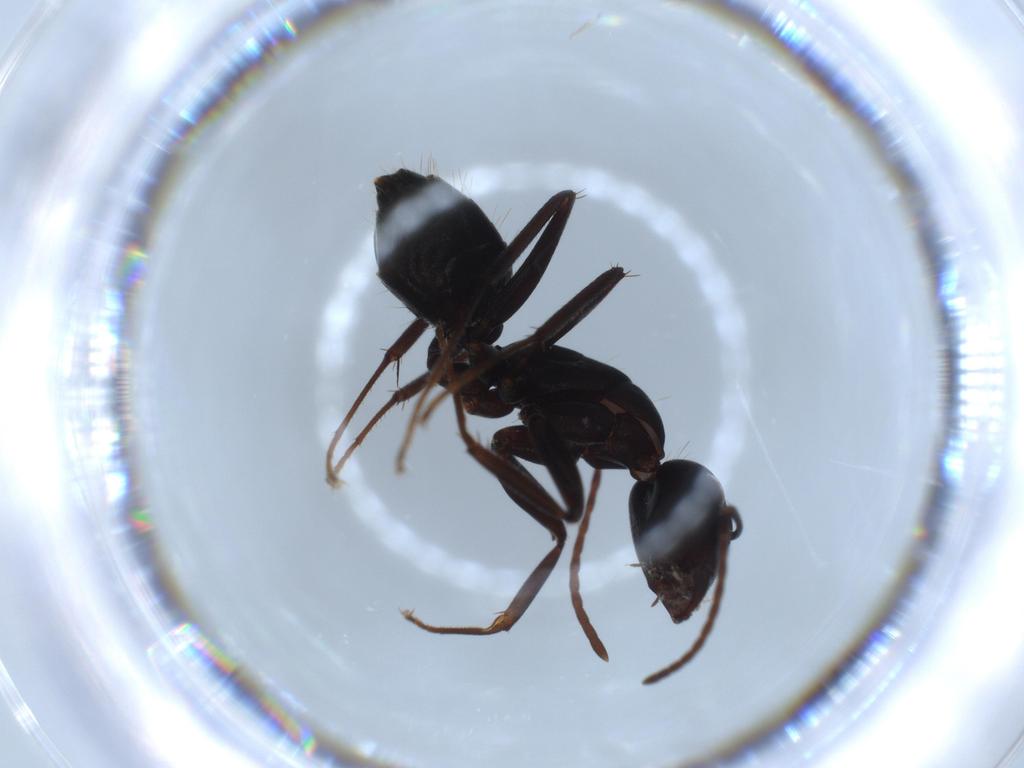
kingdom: Animalia
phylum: Arthropoda
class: Insecta
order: Hymenoptera
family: Formicidae
